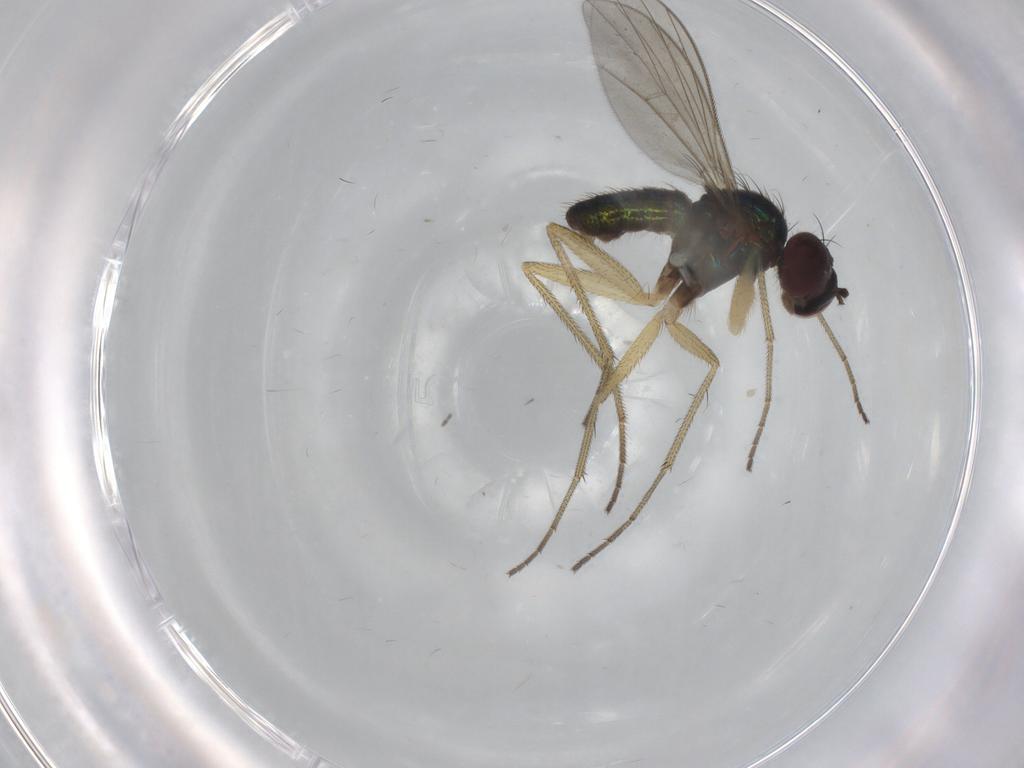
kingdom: Animalia
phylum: Arthropoda
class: Insecta
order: Diptera
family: Dolichopodidae
